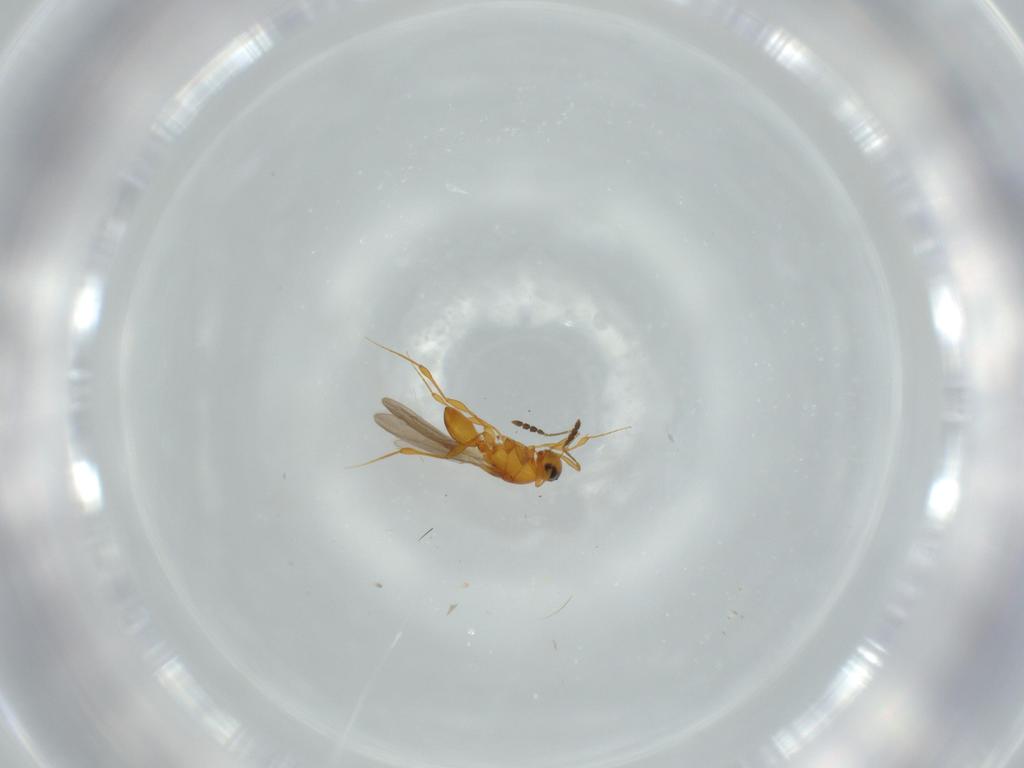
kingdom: Animalia
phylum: Arthropoda
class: Insecta
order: Hymenoptera
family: Platygastridae
